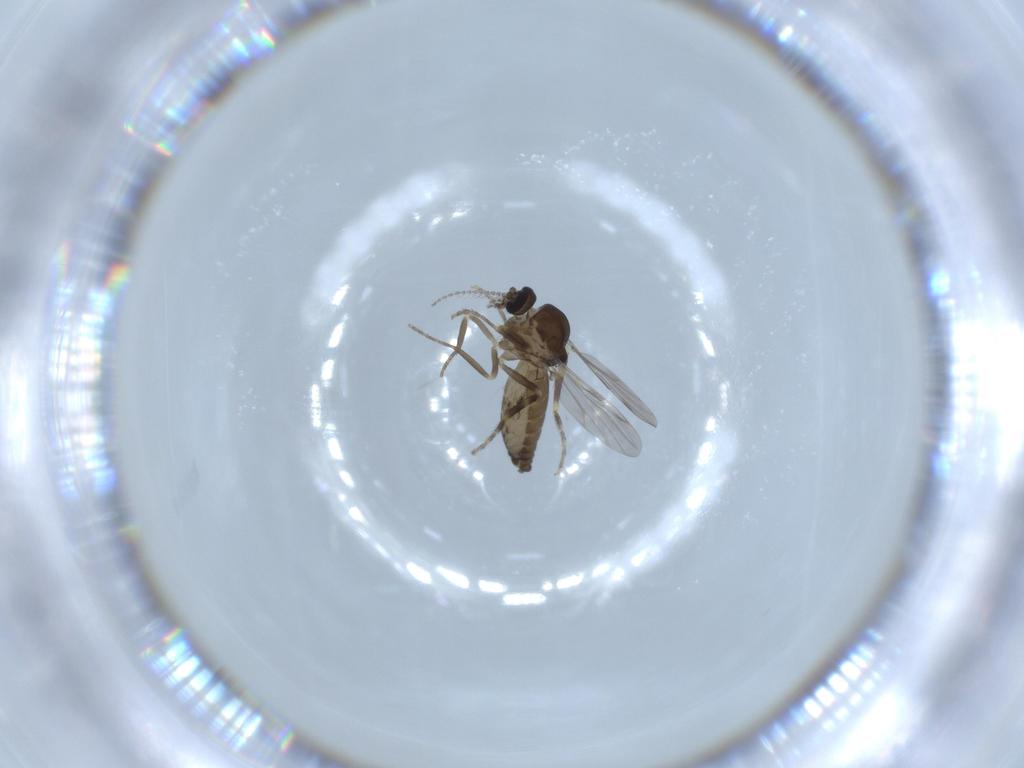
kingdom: Animalia
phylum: Arthropoda
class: Insecta
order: Diptera
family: Ceratopogonidae
